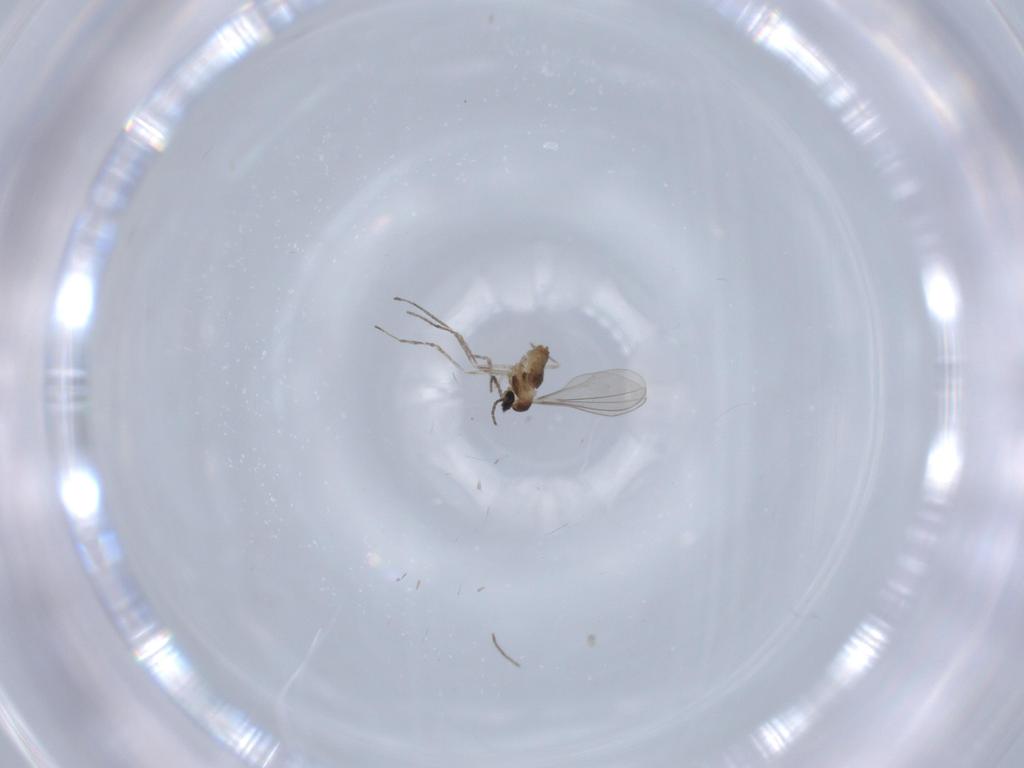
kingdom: Animalia
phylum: Arthropoda
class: Insecta
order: Diptera
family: Cecidomyiidae
